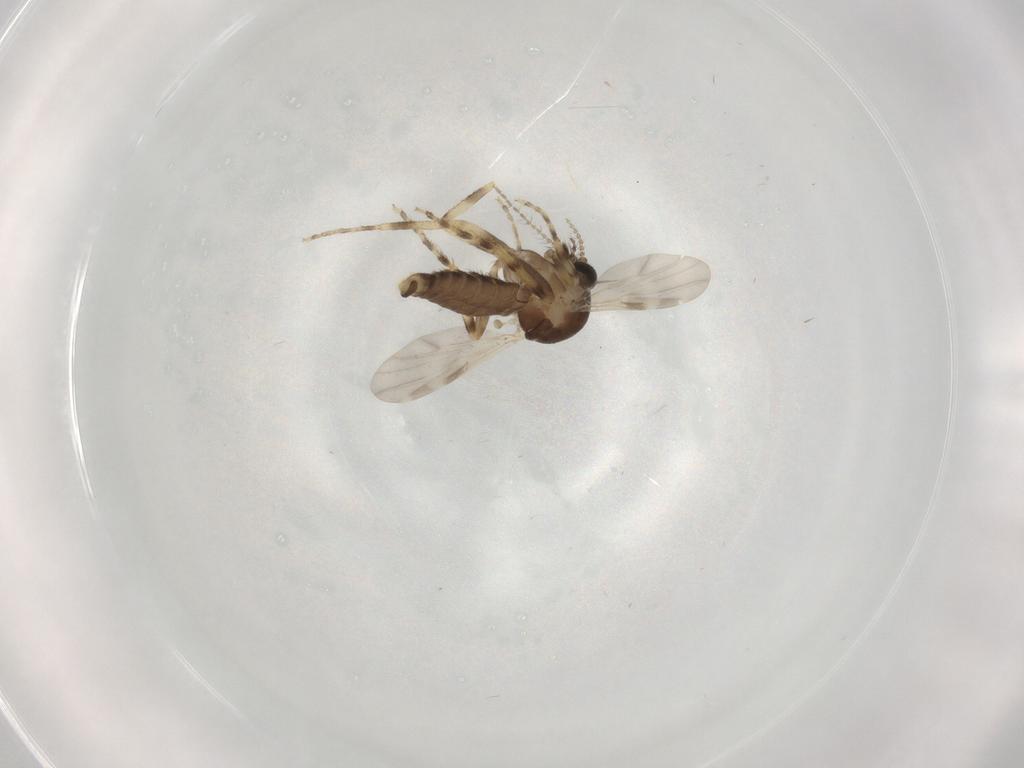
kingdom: Animalia
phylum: Arthropoda
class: Insecta
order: Diptera
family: Ceratopogonidae
